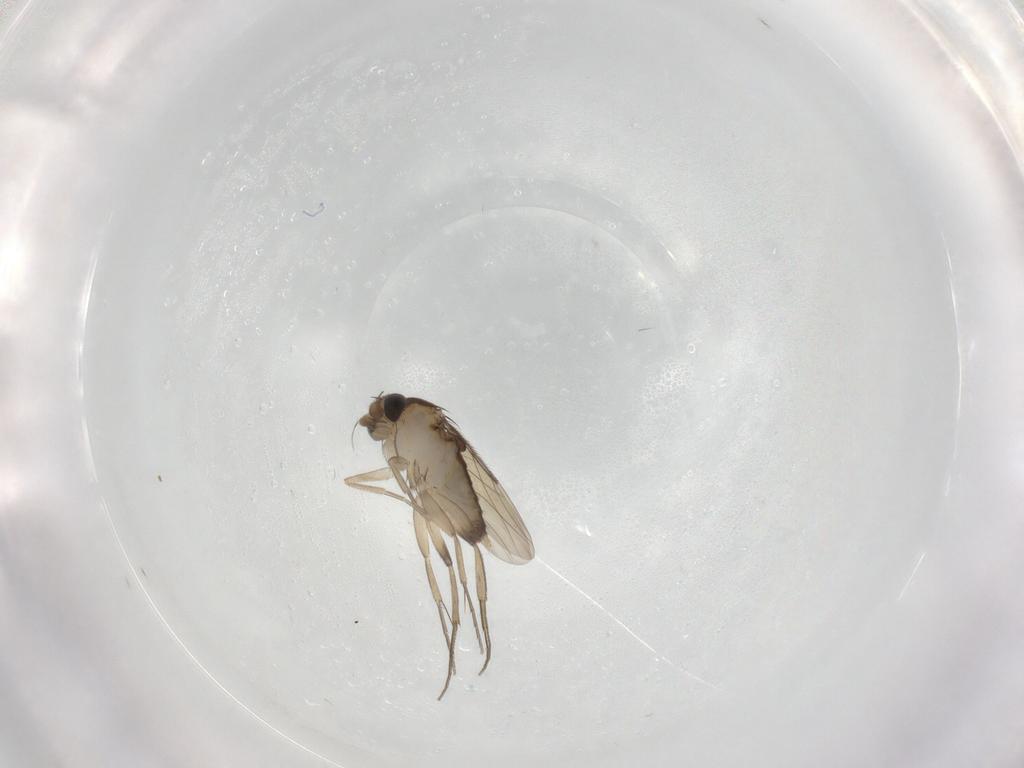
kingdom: Animalia
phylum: Arthropoda
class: Insecta
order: Diptera
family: Phoridae
